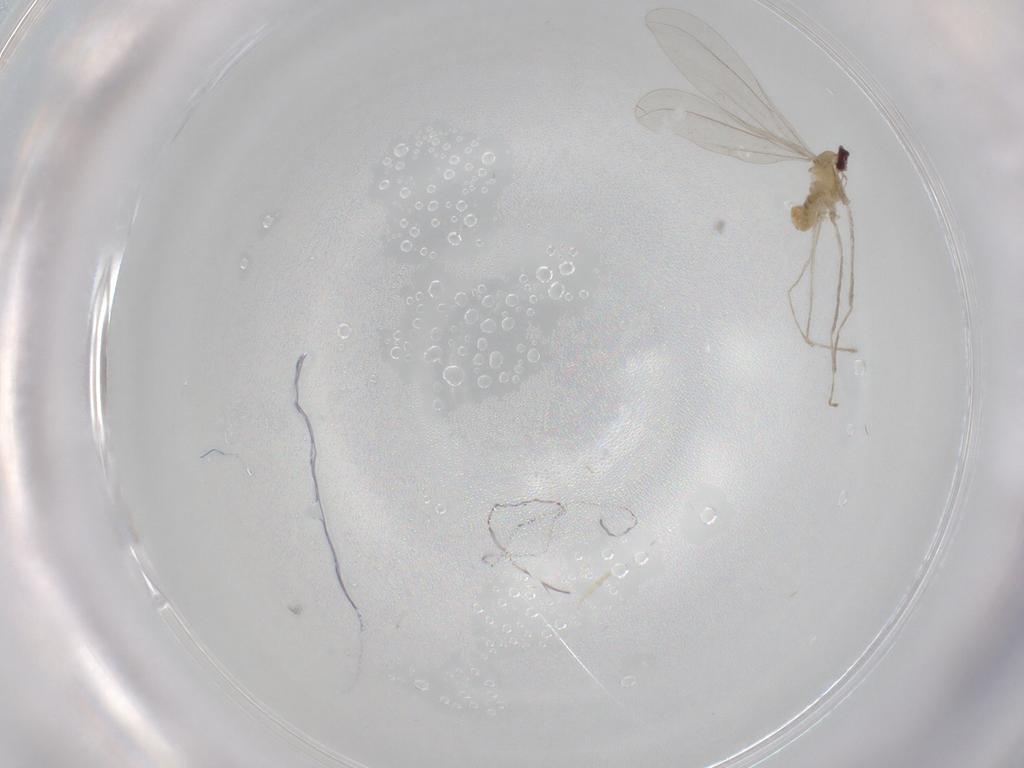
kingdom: Animalia
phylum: Arthropoda
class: Insecta
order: Diptera
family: Cecidomyiidae
